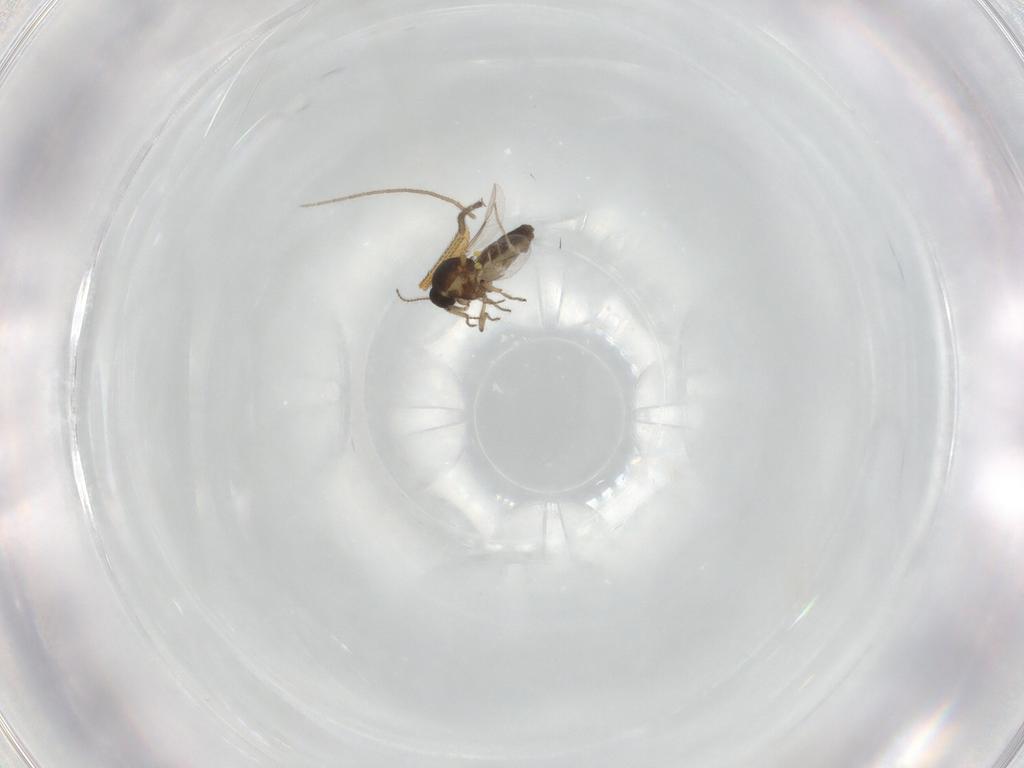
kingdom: Animalia
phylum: Arthropoda
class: Insecta
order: Diptera
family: Ceratopogonidae
